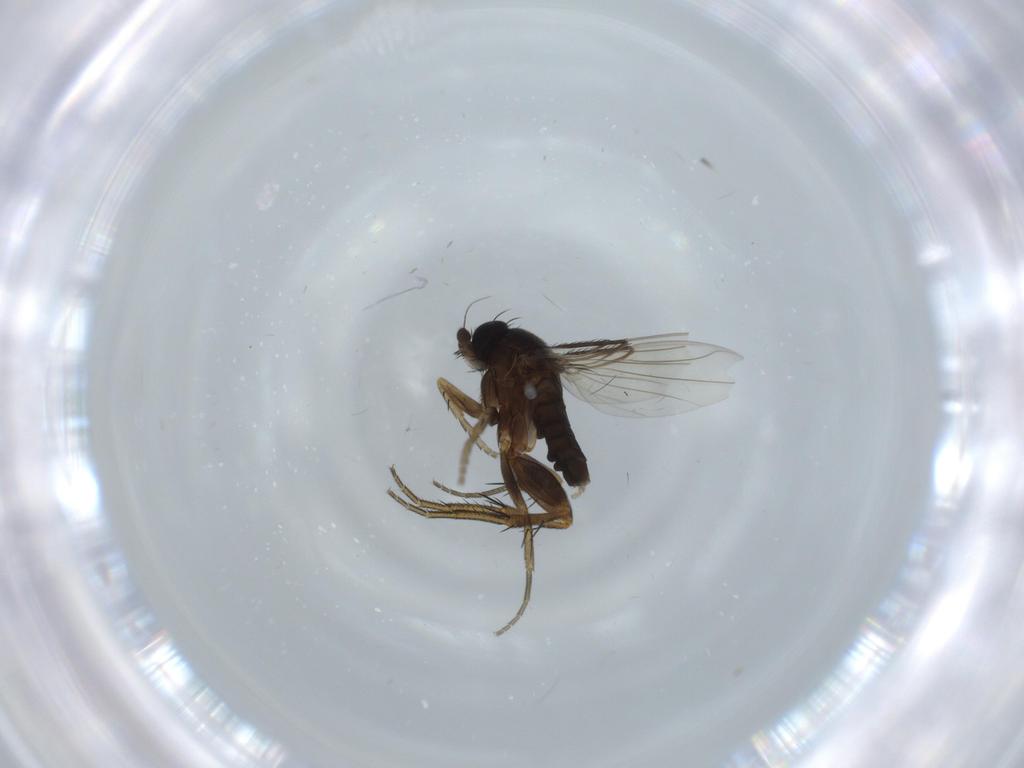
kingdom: Animalia
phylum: Arthropoda
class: Insecta
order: Diptera
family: Phoridae
